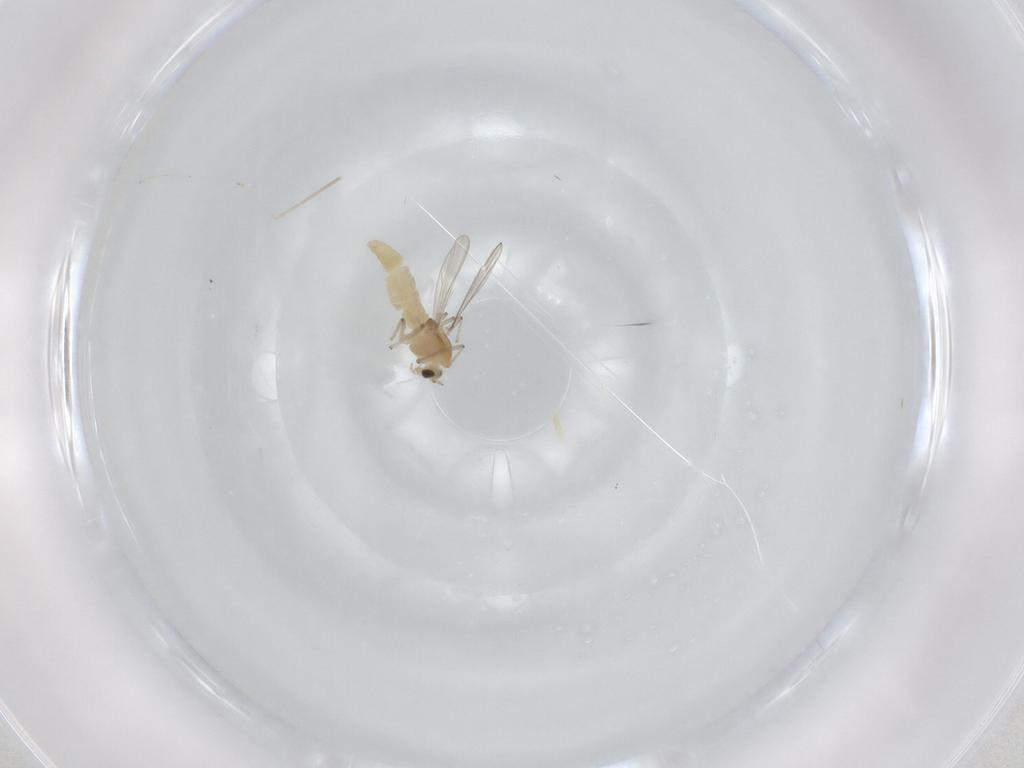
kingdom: Animalia
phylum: Arthropoda
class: Insecta
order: Diptera
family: Chironomidae
